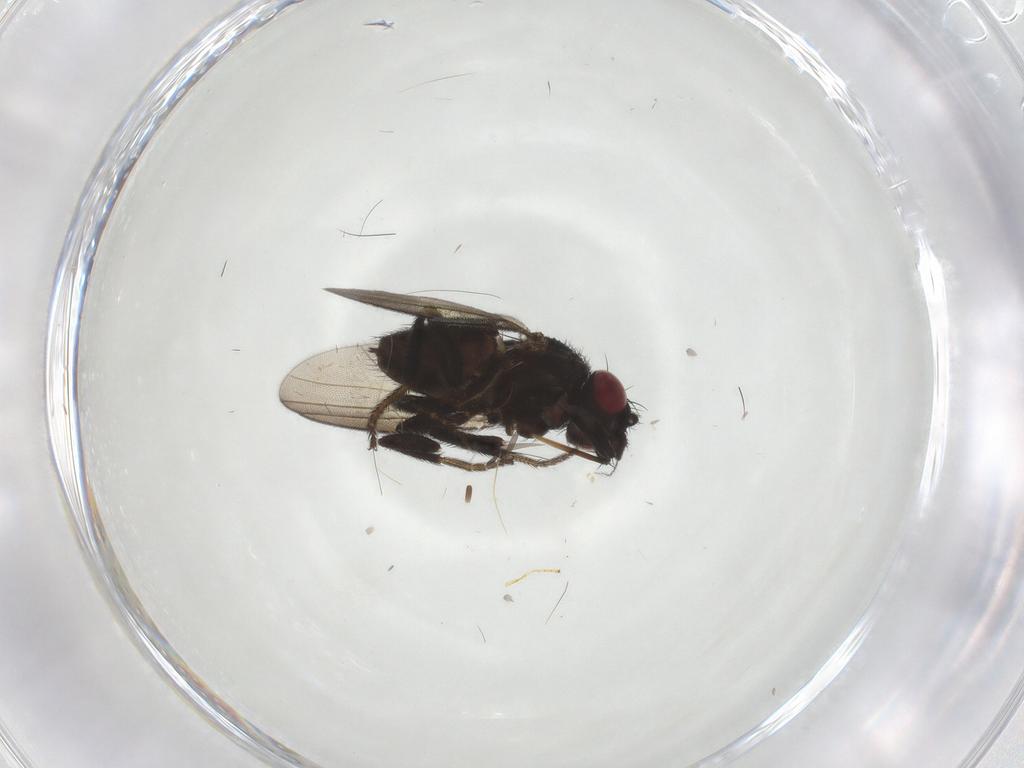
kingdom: Animalia
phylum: Arthropoda
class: Insecta
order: Diptera
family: Milichiidae
